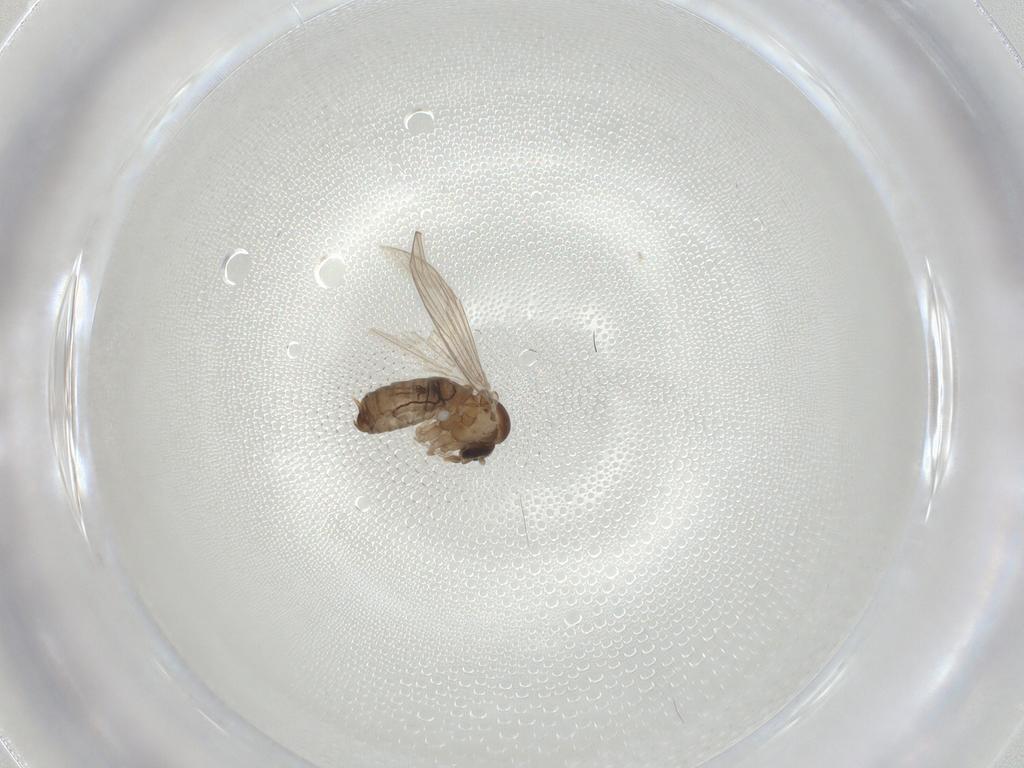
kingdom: Animalia
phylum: Arthropoda
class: Insecta
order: Diptera
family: Psychodidae
